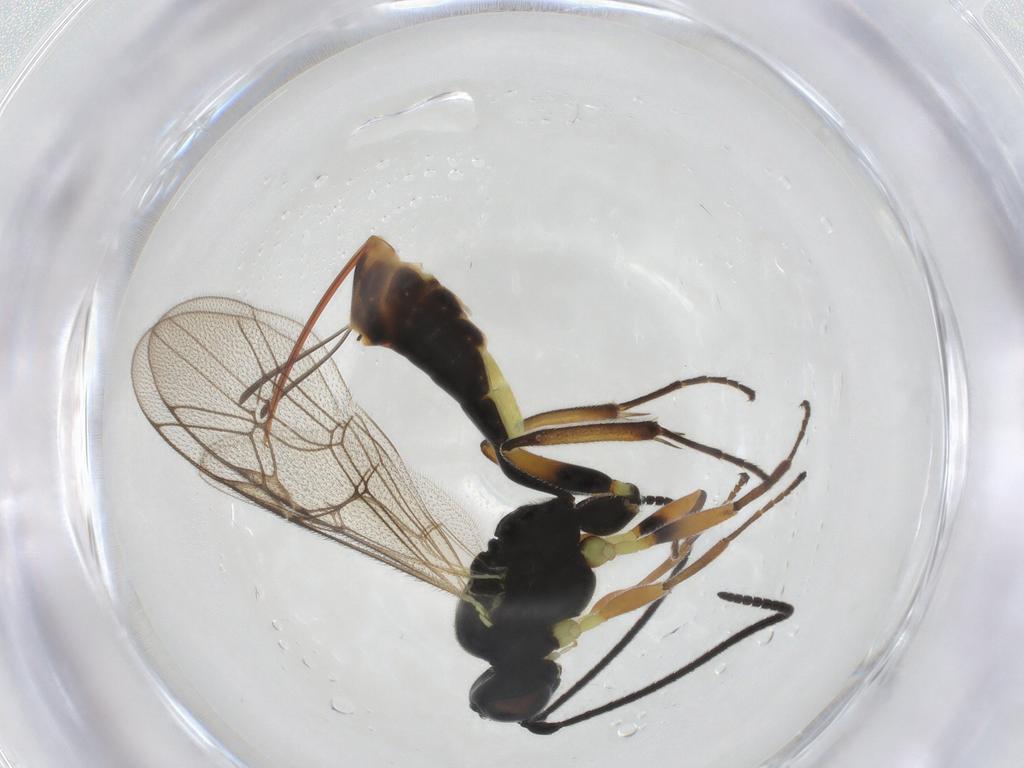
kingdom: Animalia
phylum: Arthropoda
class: Insecta
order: Hymenoptera
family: Ichneumonidae
